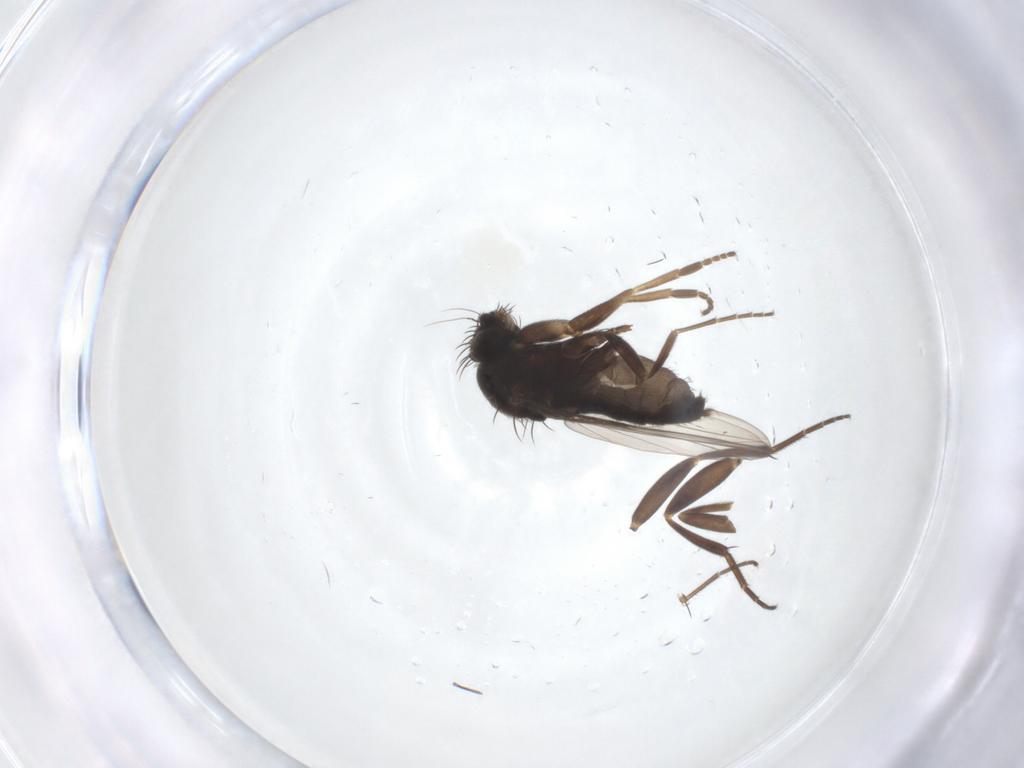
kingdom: Animalia
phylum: Arthropoda
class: Insecta
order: Diptera
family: Phoridae
